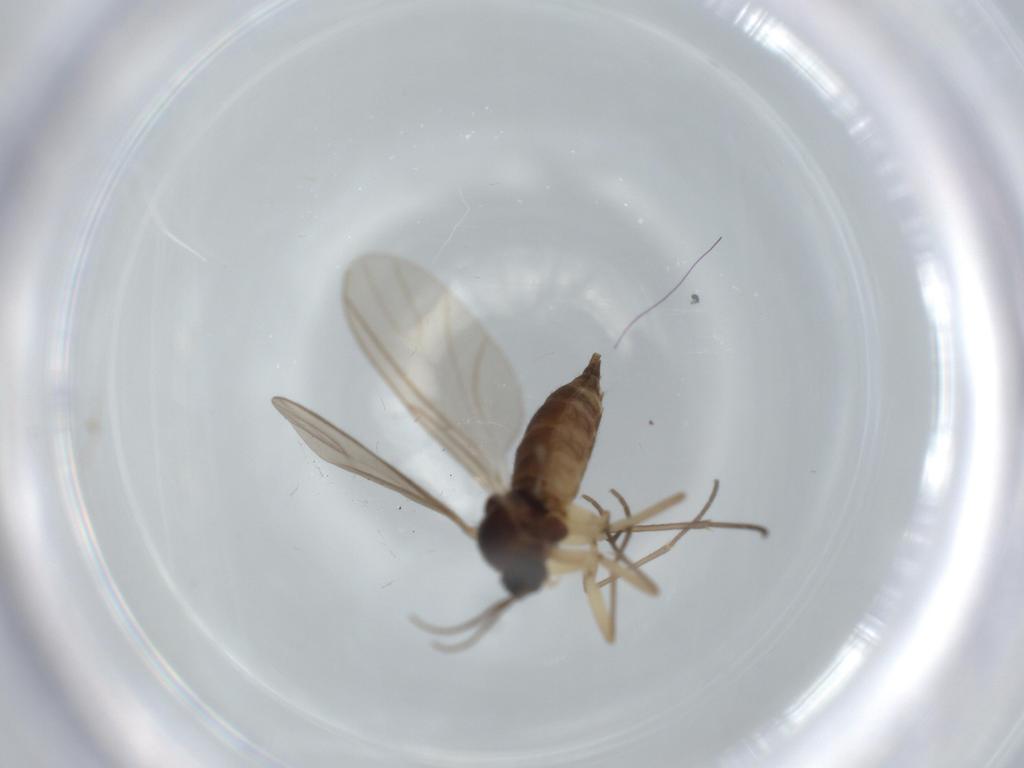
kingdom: Animalia
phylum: Arthropoda
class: Insecta
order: Diptera
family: Sciaridae
